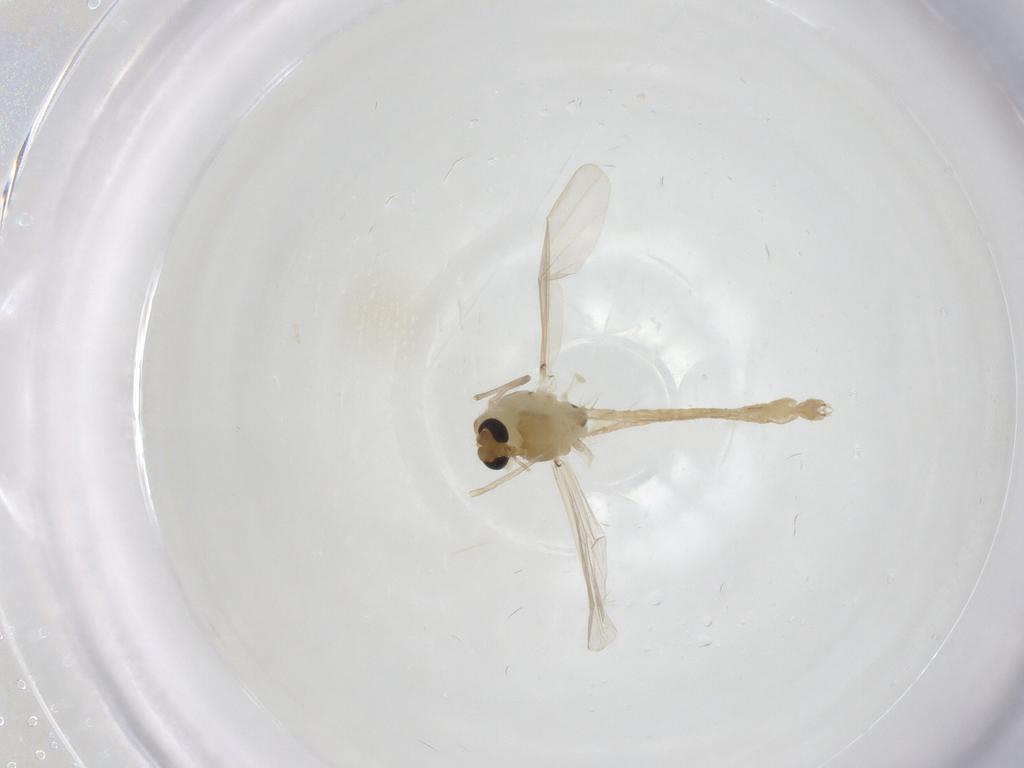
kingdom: Animalia
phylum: Arthropoda
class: Insecta
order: Diptera
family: Chironomidae
